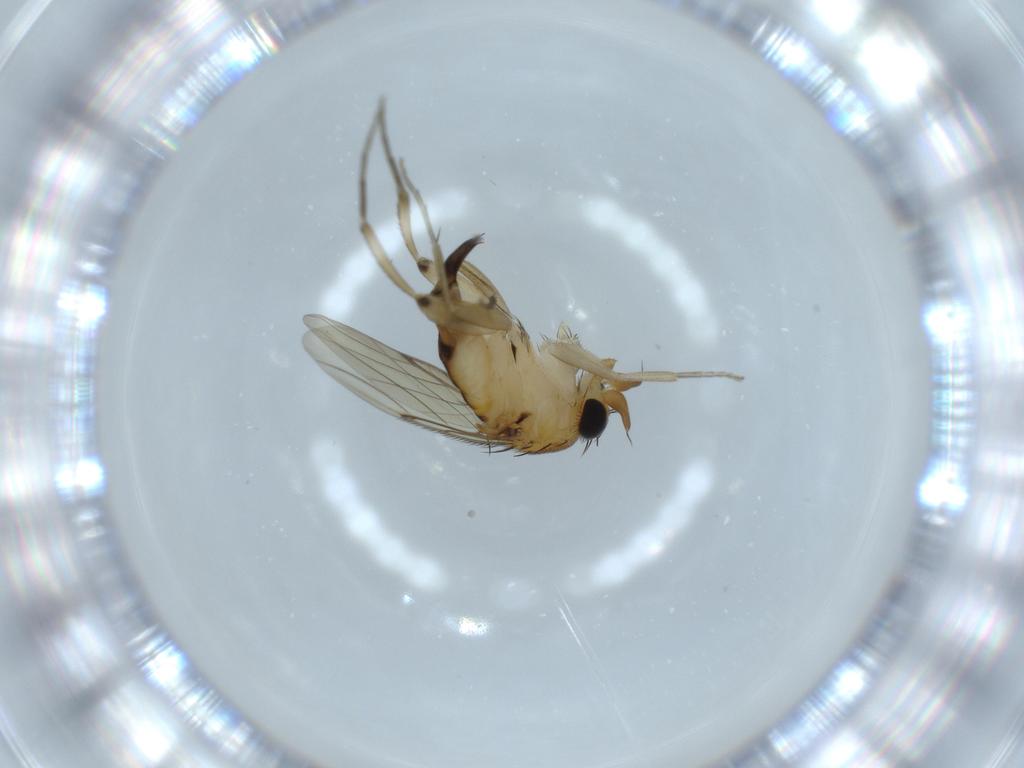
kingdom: Animalia
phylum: Arthropoda
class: Insecta
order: Diptera
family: Phoridae
